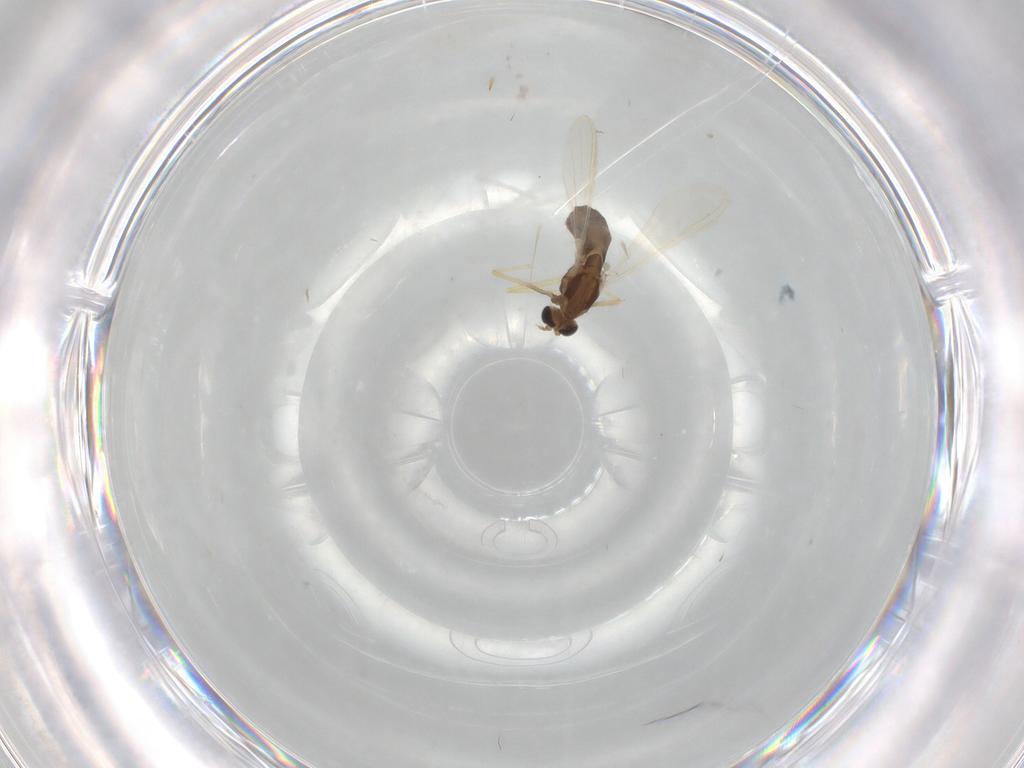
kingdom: Animalia
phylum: Arthropoda
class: Insecta
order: Diptera
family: Chironomidae
